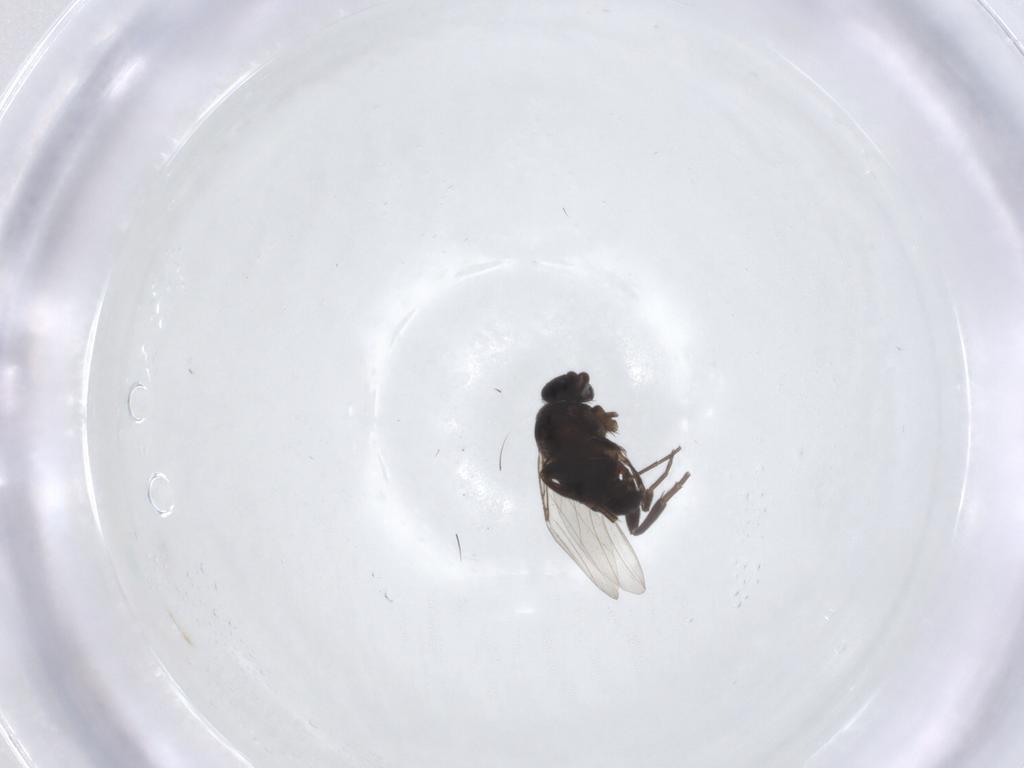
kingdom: Animalia
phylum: Arthropoda
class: Insecta
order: Diptera
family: Phoridae
